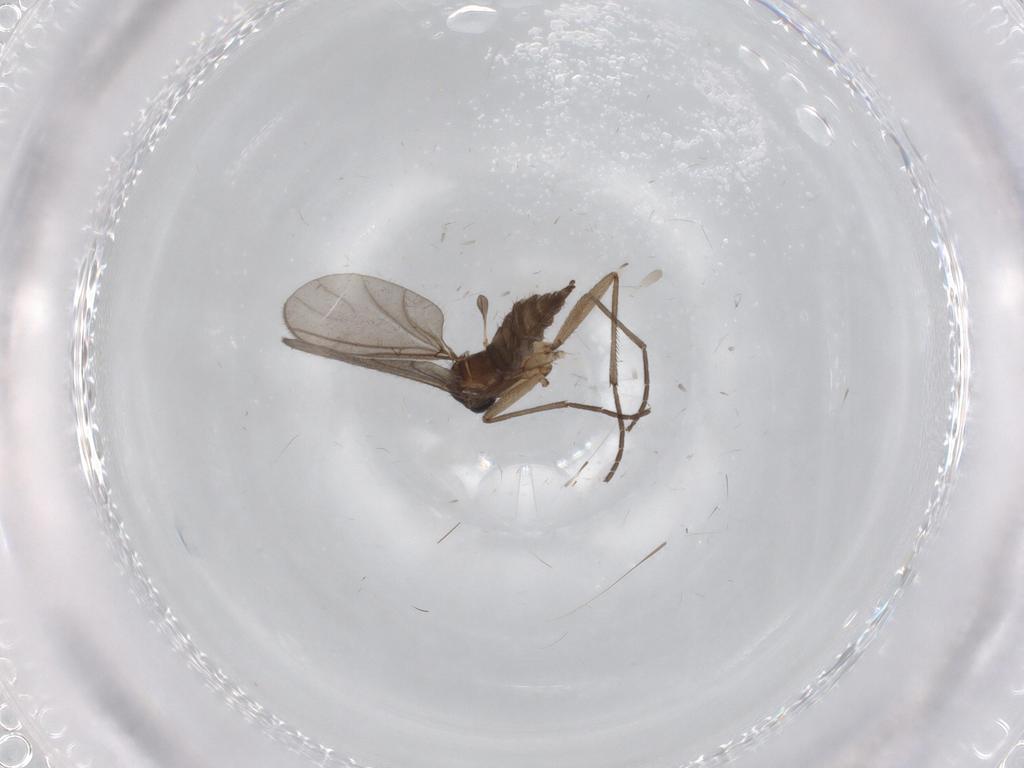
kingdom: Animalia
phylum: Arthropoda
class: Insecta
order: Diptera
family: Sciaridae
